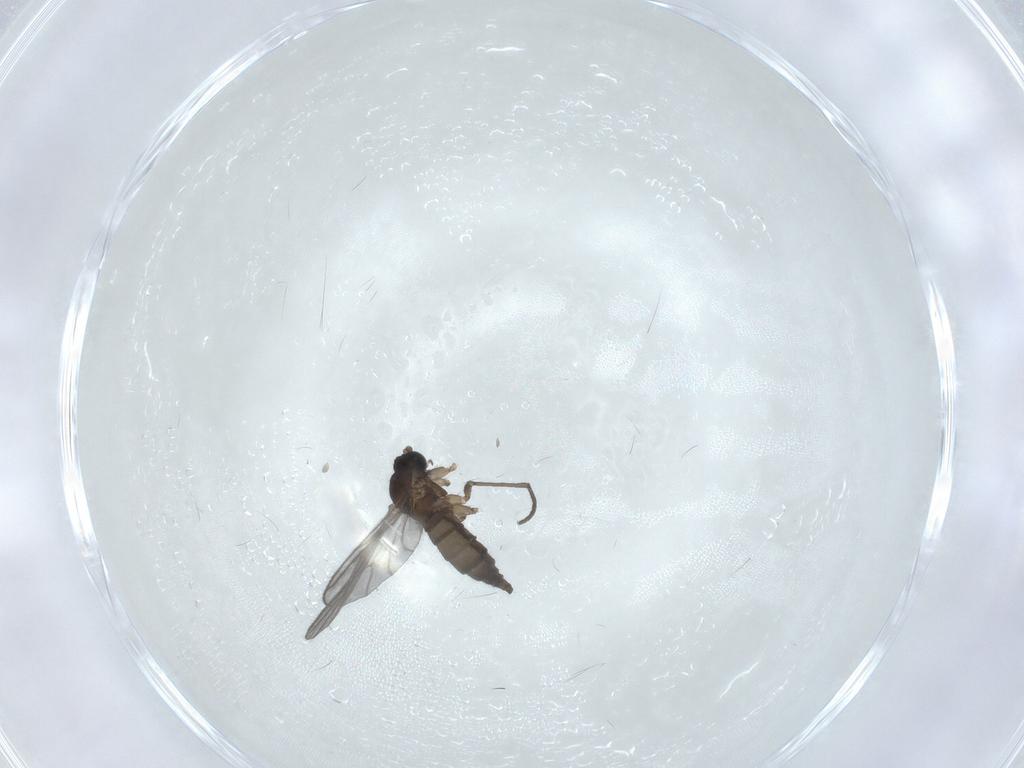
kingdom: Animalia
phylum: Arthropoda
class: Insecta
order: Diptera
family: Sciaridae
